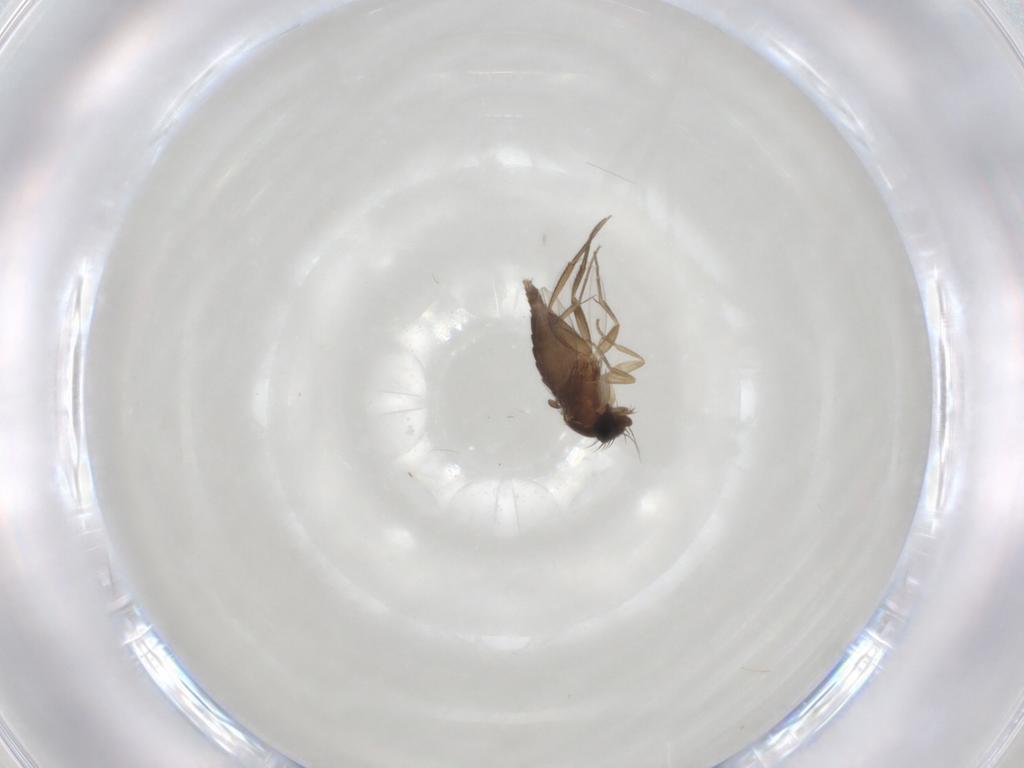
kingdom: Animalia
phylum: Arthropoda
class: Insecta
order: Diptera
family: Phoridae
